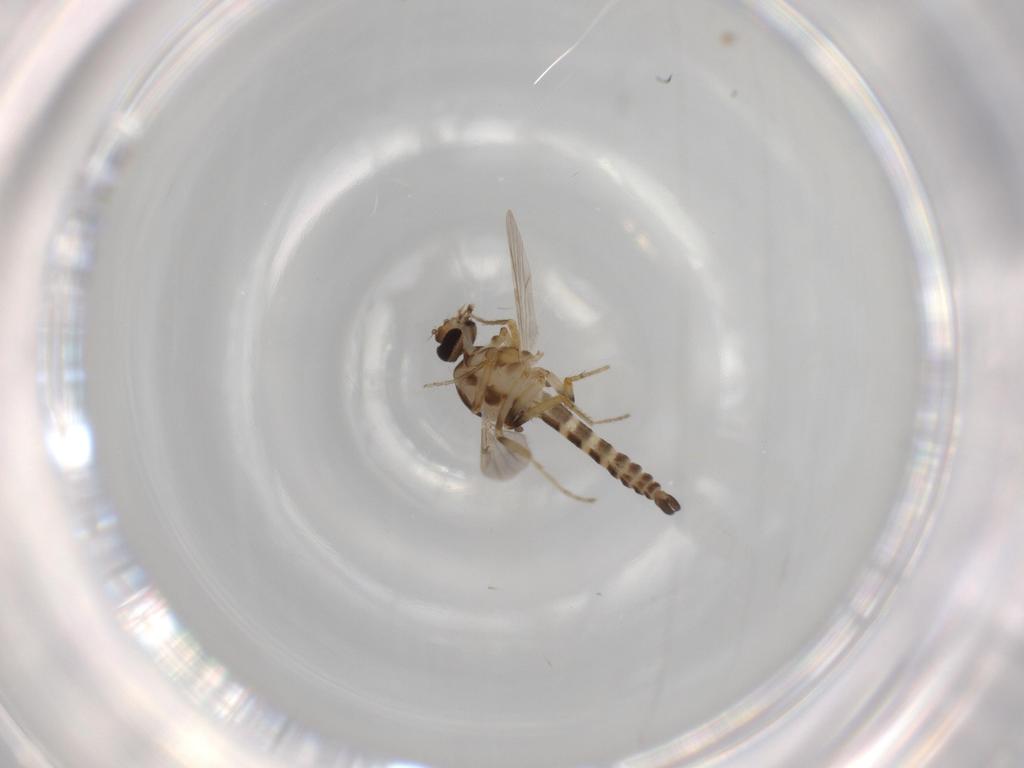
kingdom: Animalia
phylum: Arthropoda
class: Insecta
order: Diptera
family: Ceratopogonidae
